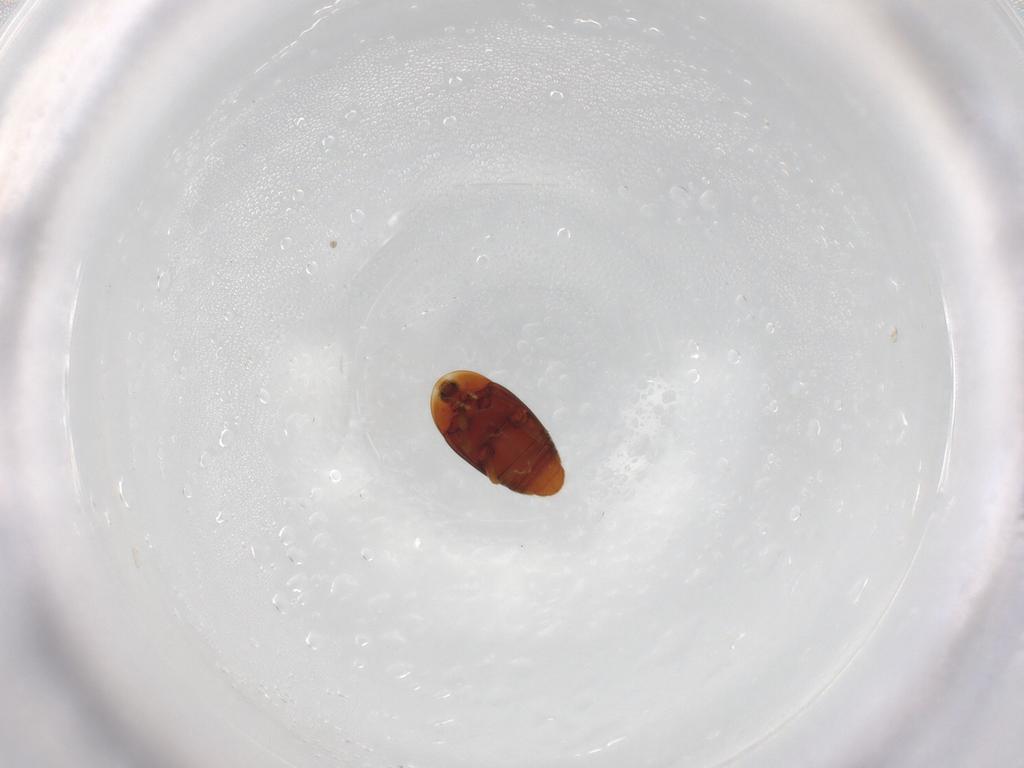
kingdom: Animalia
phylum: Arthropoda
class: Insecta
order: Coleoptera
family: Corylophidae
